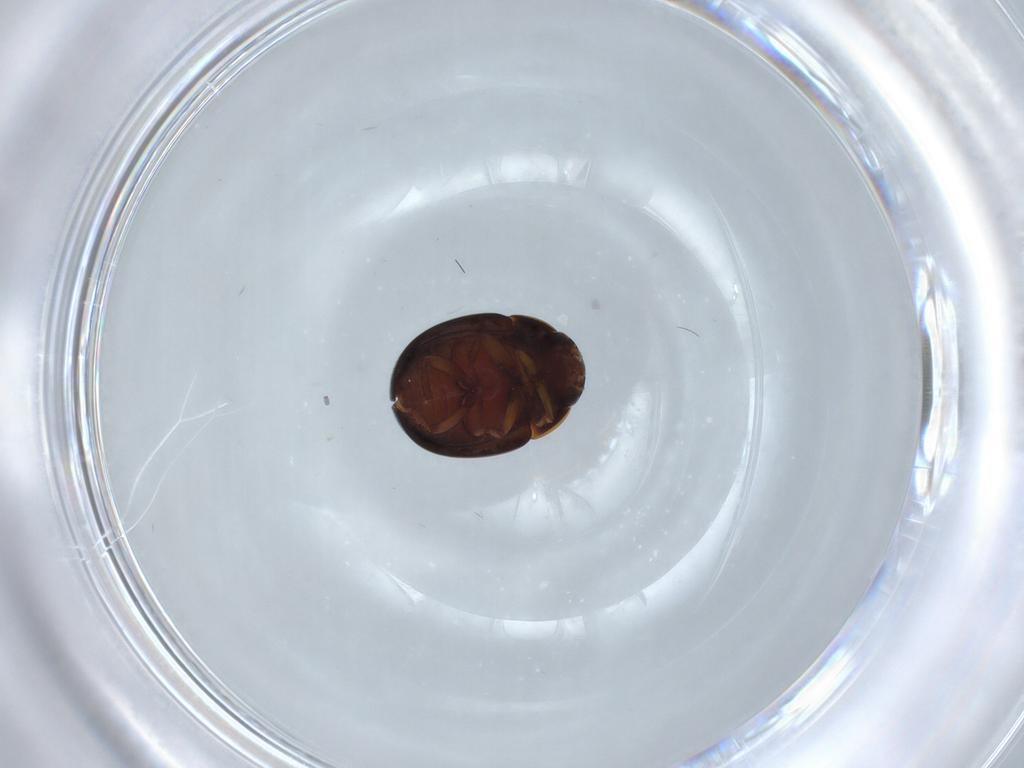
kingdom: Animalia
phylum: Arthropoda
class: Insecta
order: Coleoptera
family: Leiodidae
